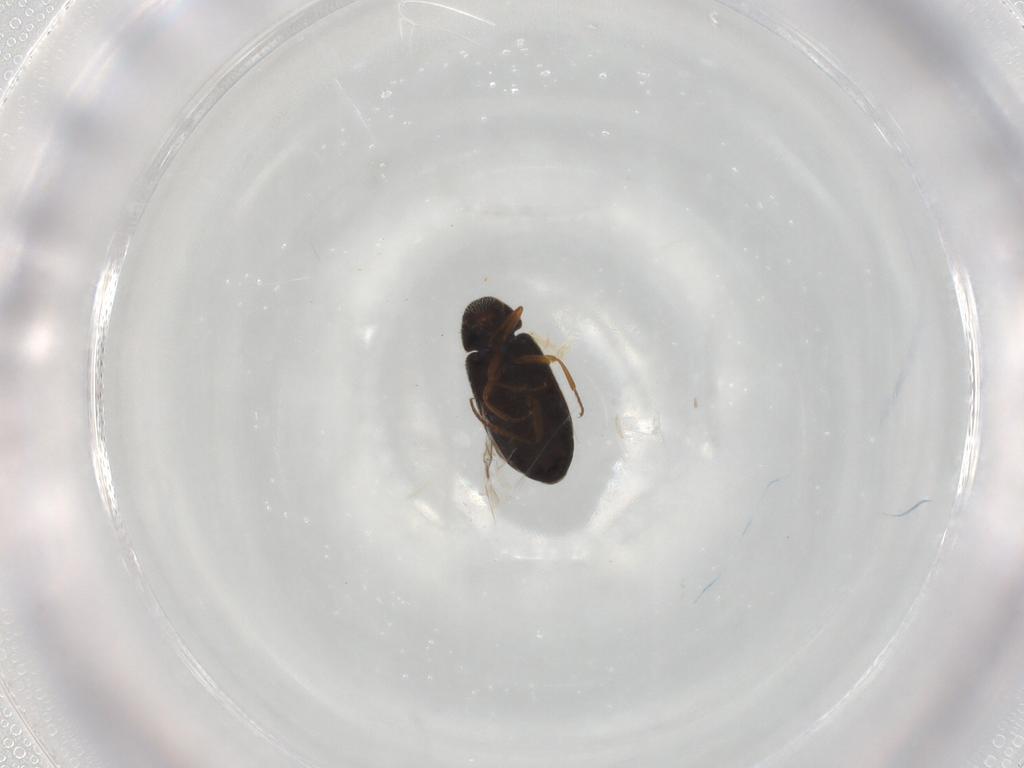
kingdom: Animalia
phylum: Arthropoda
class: Insecta
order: Coleoptera
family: Rhadalidae
